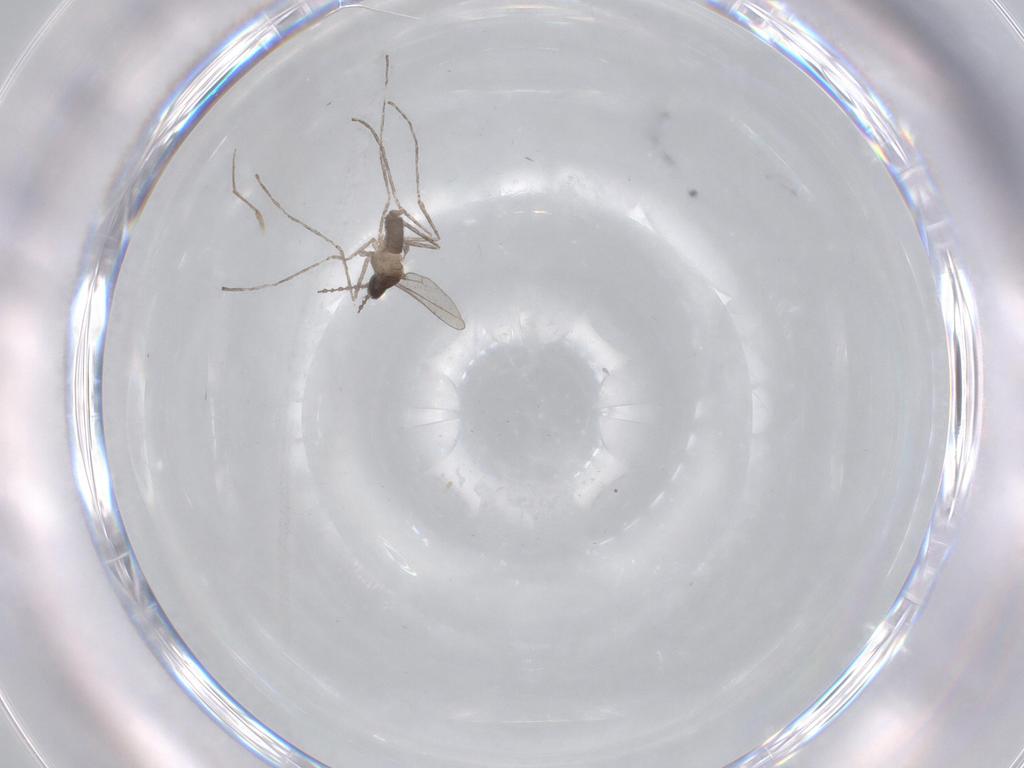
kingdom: Animalia
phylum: Arthropoda
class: Insecta
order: Diptera
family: Cecidomyiidae
